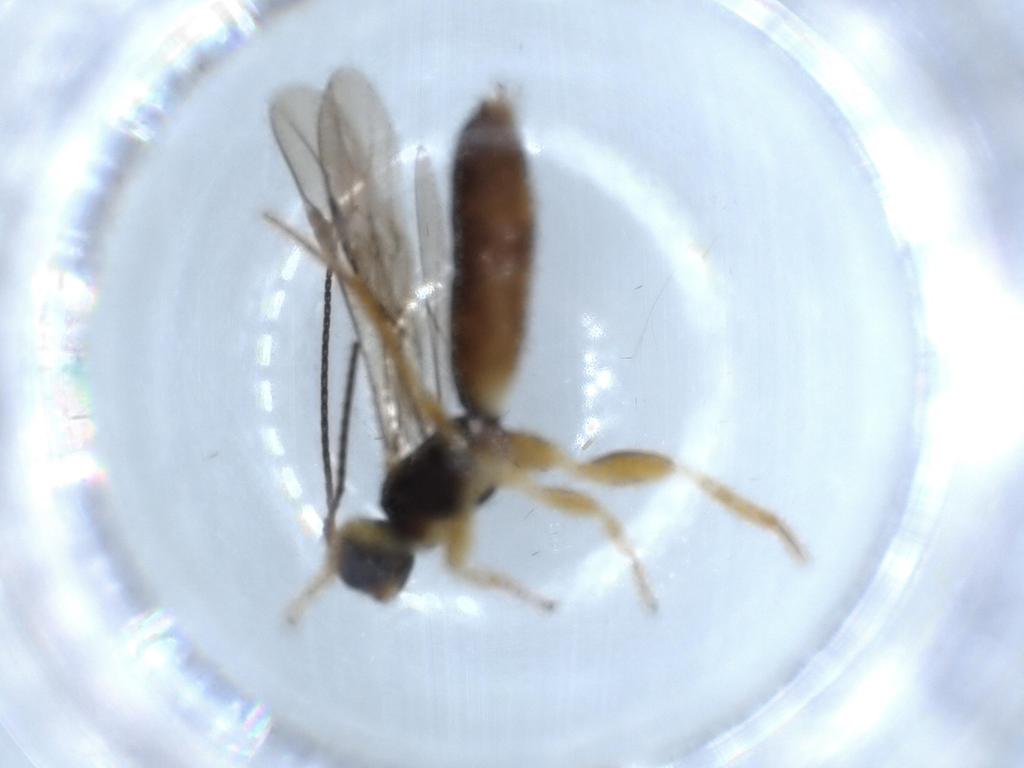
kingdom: Animalia
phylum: Arthropoda
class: Insecta
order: Hymenoptera
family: Braconidae
